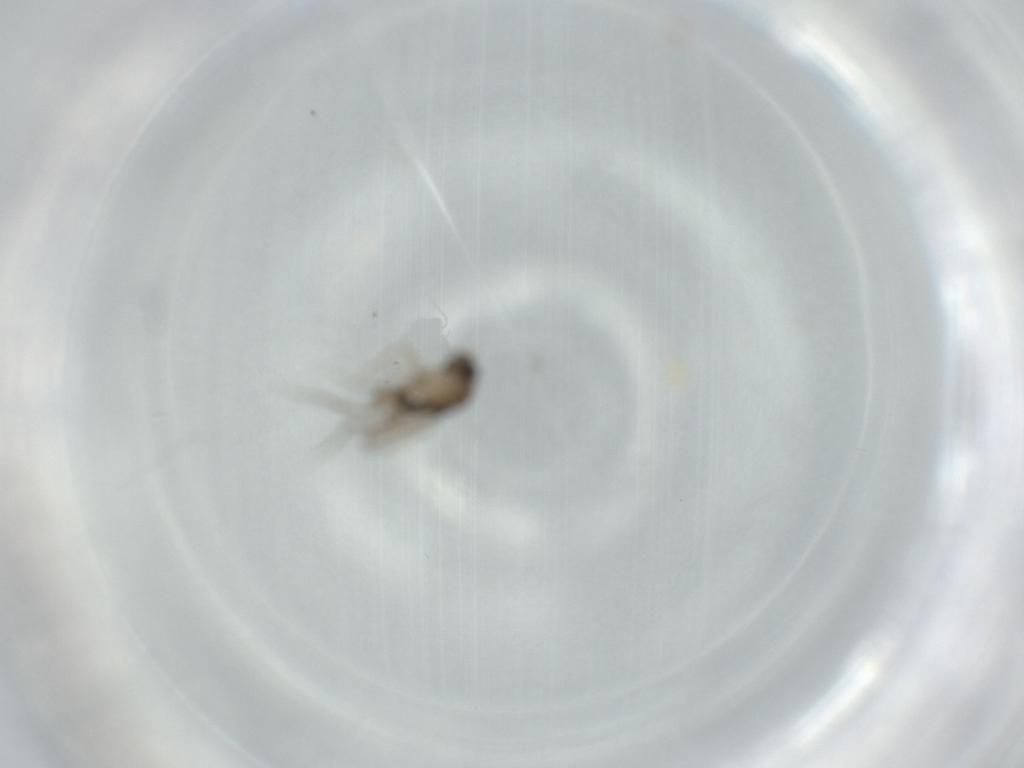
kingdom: Animalia
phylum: Arthropoda
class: Insecta
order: Diptera
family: Phoridae
